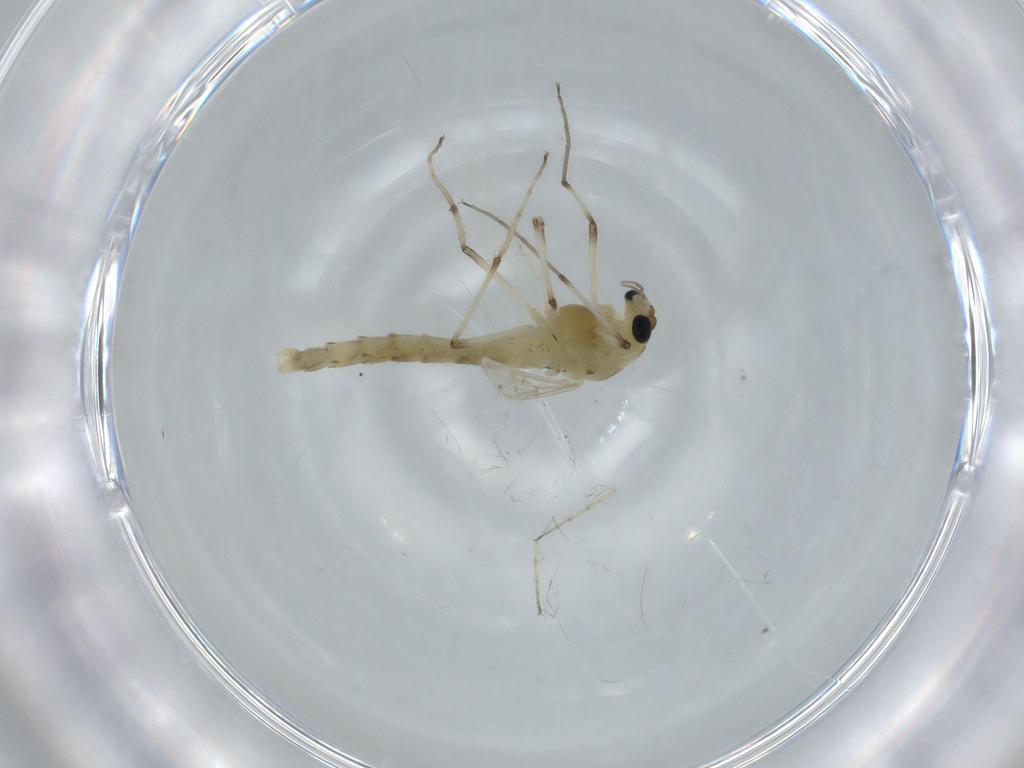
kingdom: Animalia
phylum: Arthropoda
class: Insecta
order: Diptera
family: Chironomidae
